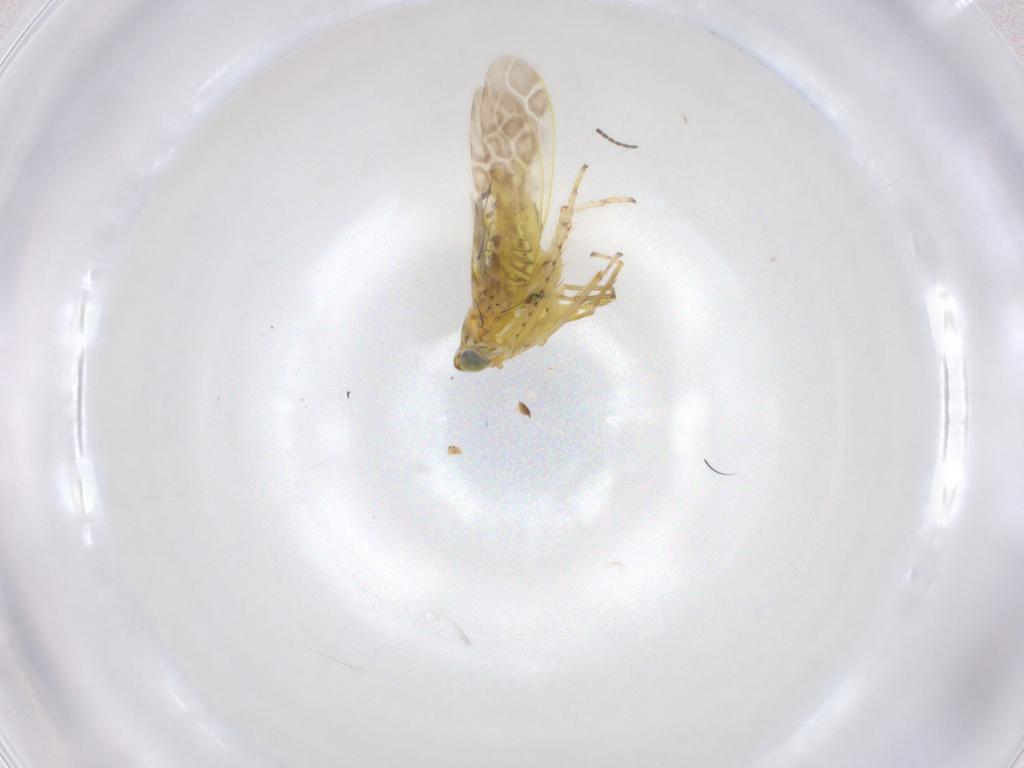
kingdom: Animalia
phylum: Arthropoda
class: Insecta
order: Hemiptera
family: Cicadellidae
